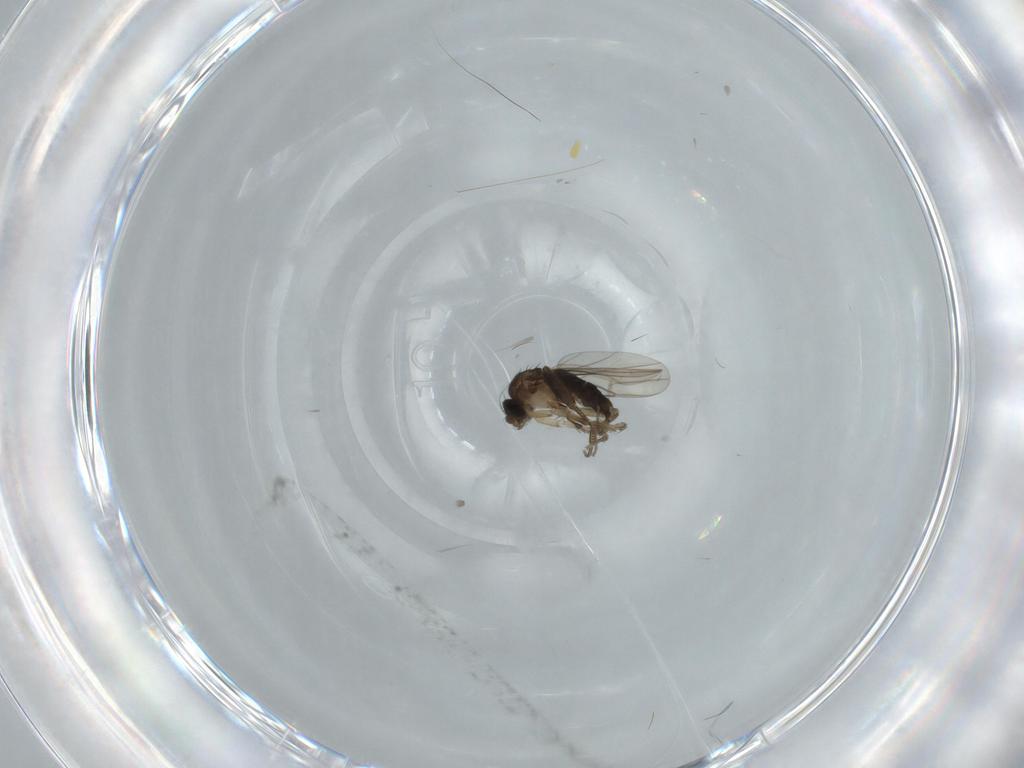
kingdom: Animalia
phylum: Arthropoda
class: Insecta
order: Diptera
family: Phoridae
